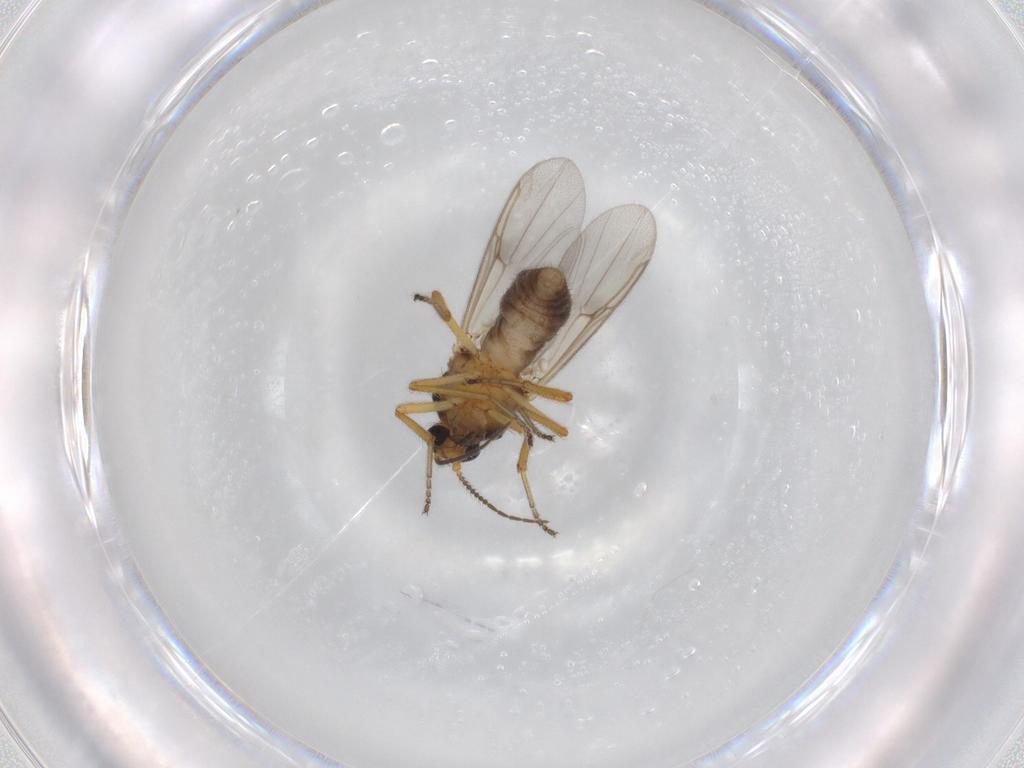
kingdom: Animalia
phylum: Arthropoda
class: Insecta
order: Diptera
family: Ceratopogonidae
